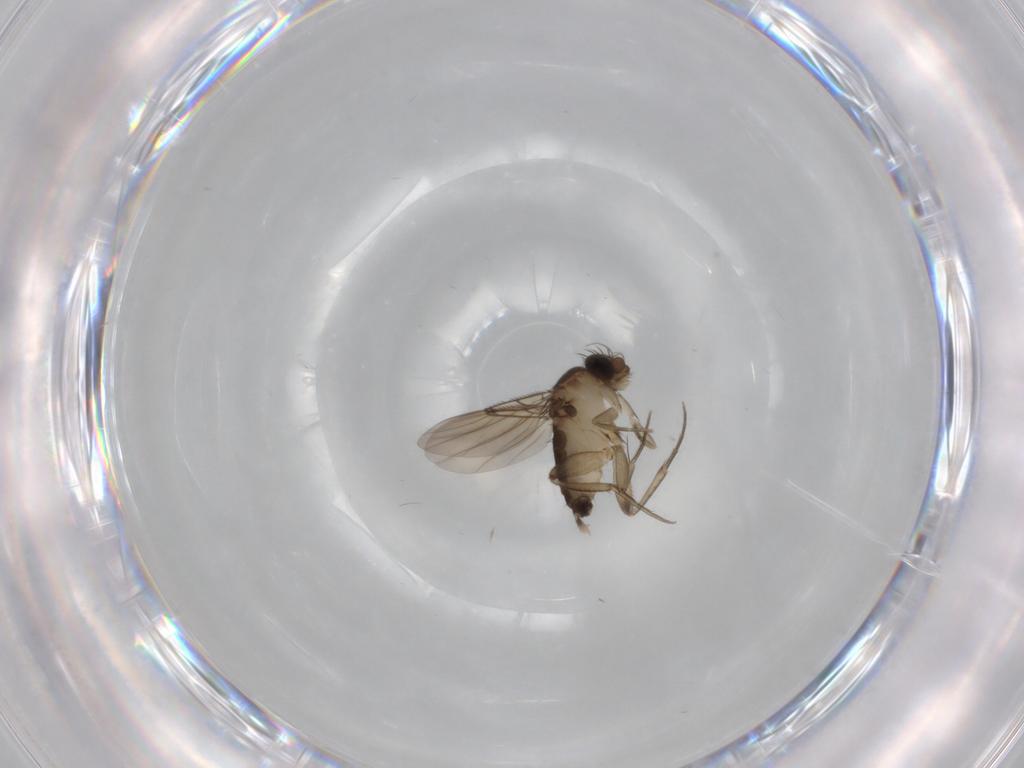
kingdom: Animalia
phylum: Arthropoda
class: Insecta
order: Diptera
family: Phoridae
